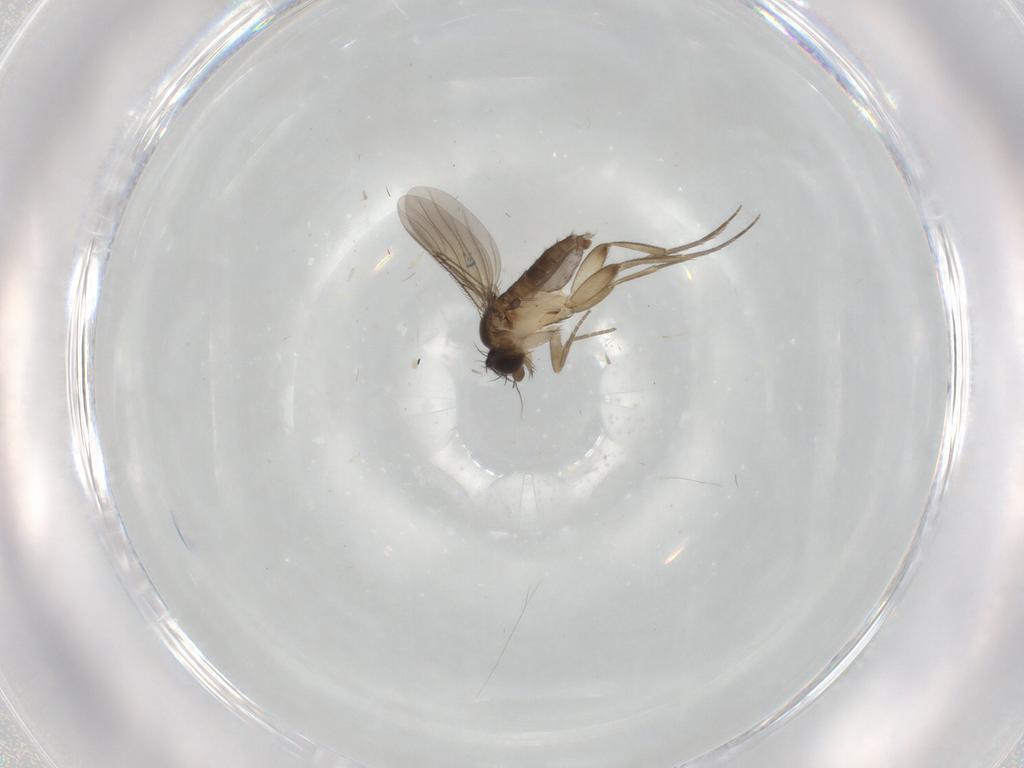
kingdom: Animalia
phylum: Arthropoda
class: Insecta
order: Diptera
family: Phoridae
